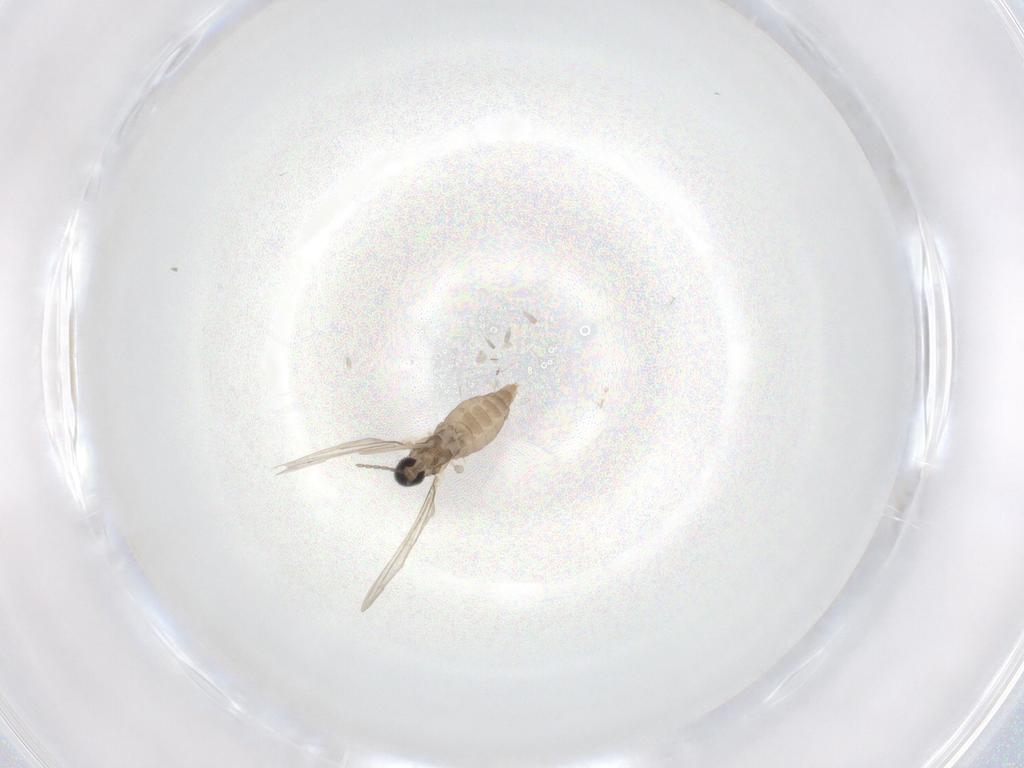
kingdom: Animalia
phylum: Arthropoda
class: Insecta
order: Diptera
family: Cecidomyiidae
